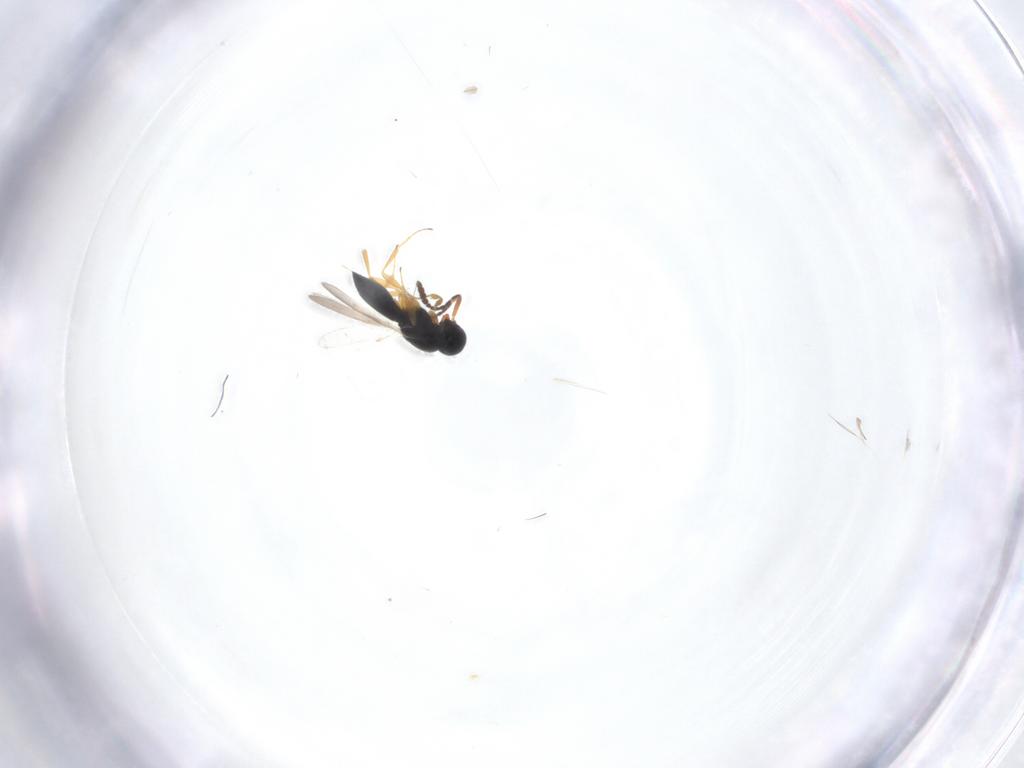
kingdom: Animalia
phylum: Arthropoda
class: Insecta
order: Hymenoptera
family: Scelionidae
